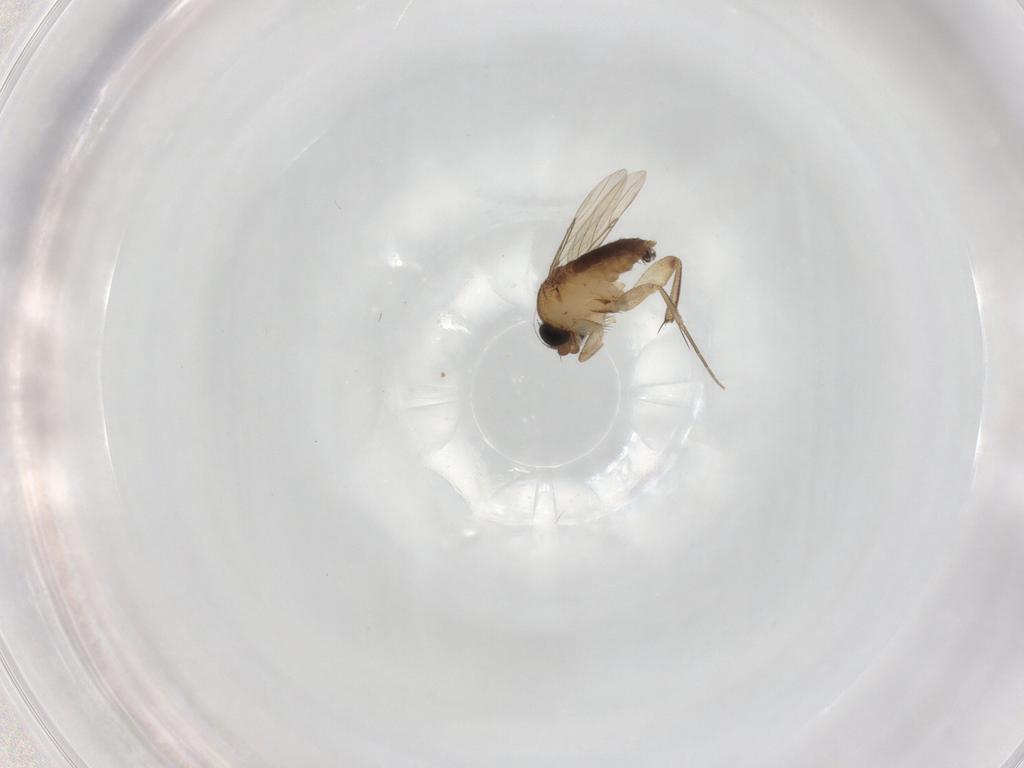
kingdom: Animalia
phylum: Arthropoda
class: Insecta
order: Diptera
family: Phoridae
